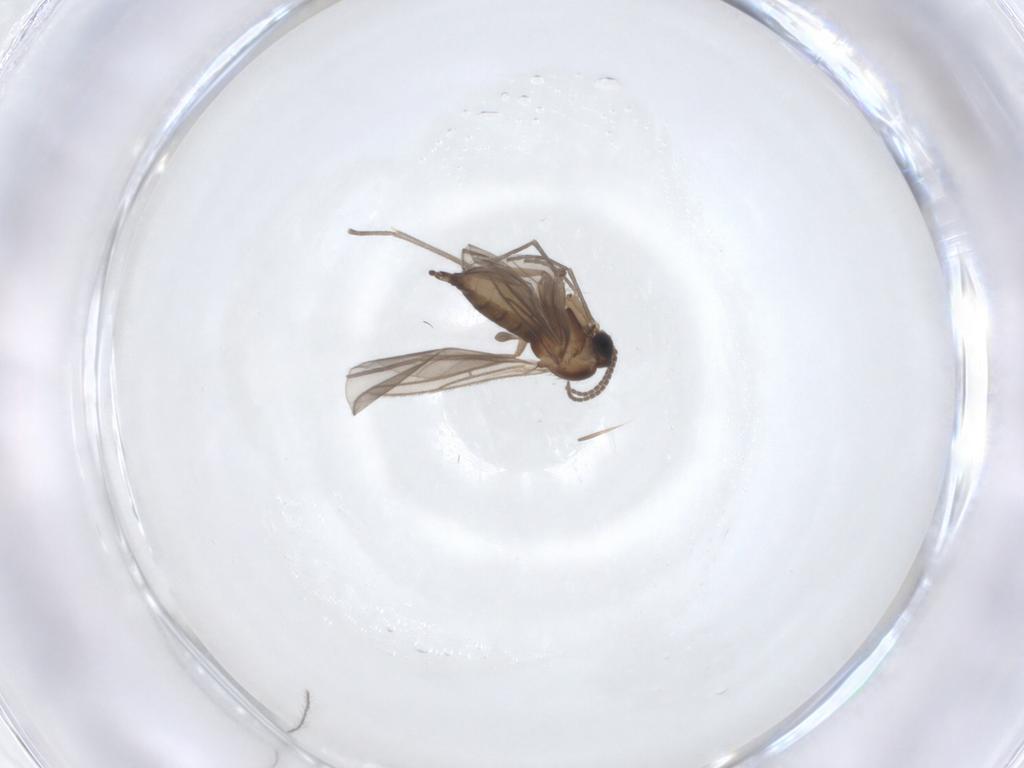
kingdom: Animalia
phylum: Arthropoda
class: Insecta
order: Diptera
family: Sciaridae
